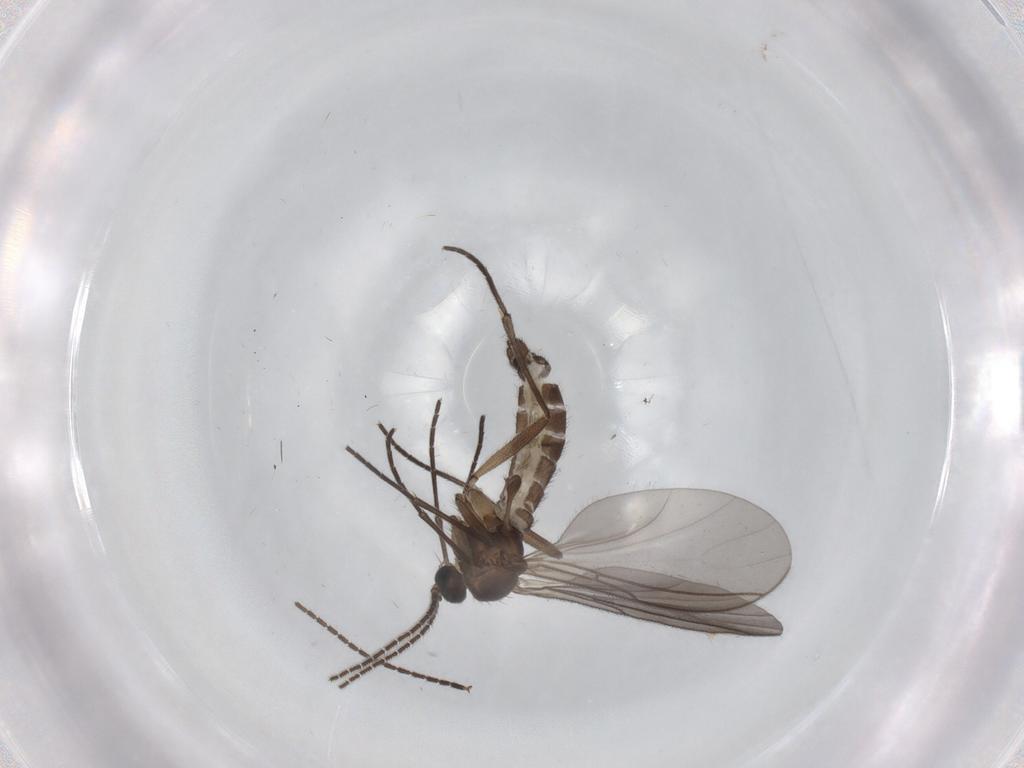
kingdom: Animalia
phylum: Arthropoda
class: Insecta
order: Diptera
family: Sciaridae
